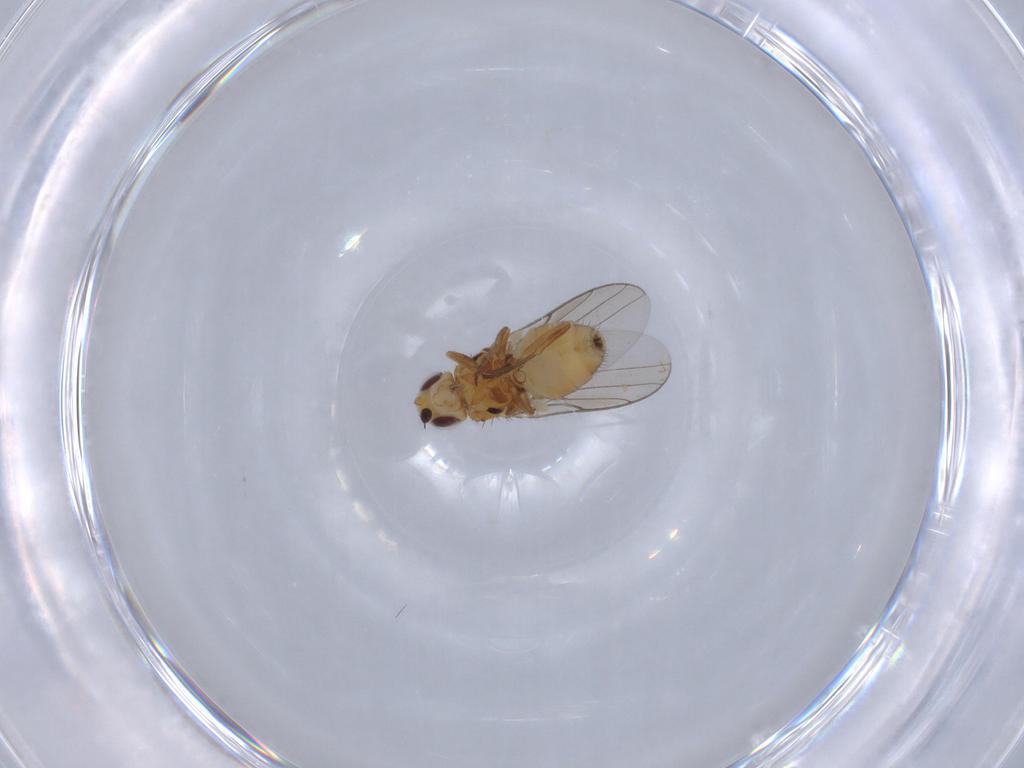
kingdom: Animalia
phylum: Arthropoda
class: Insecta
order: Diptera
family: Chloropidae
